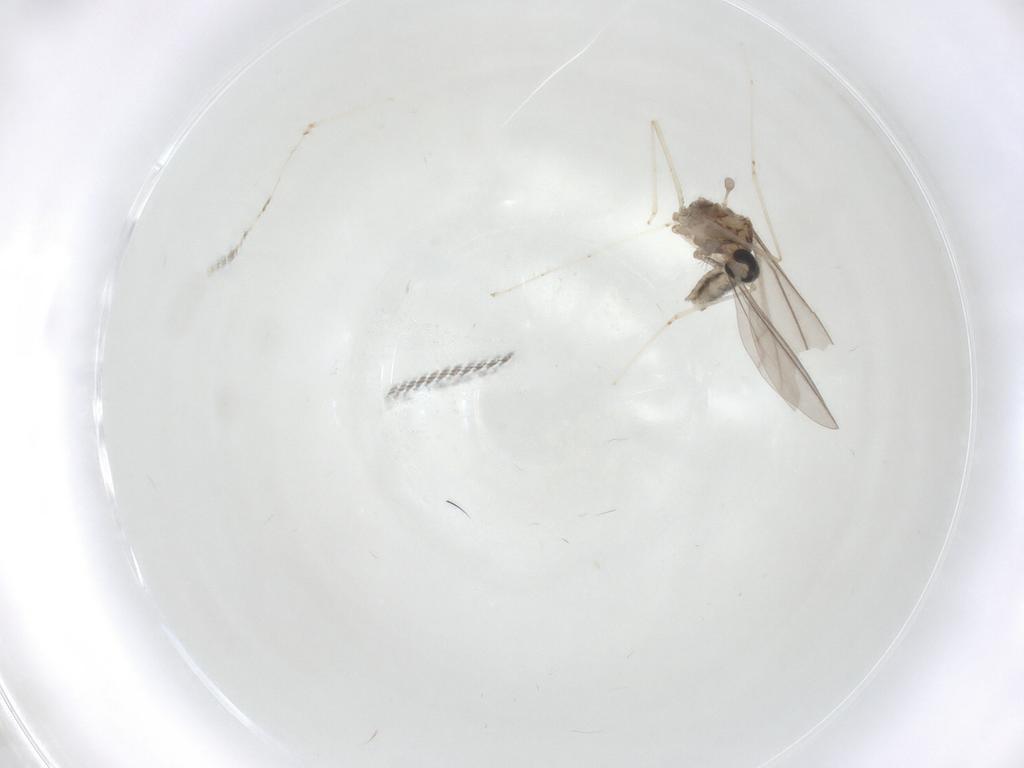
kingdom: Animalia
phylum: Arthropoda
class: Insecta
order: Diptera
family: Cecidomyiidae
